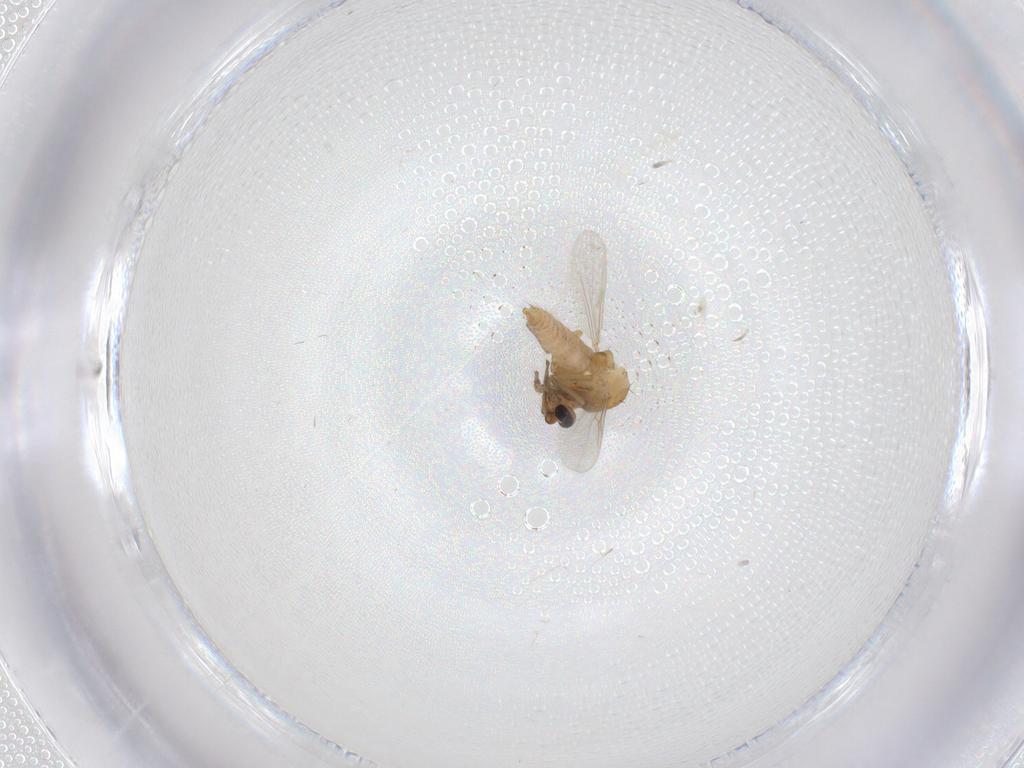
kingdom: Animalia
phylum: Arthropoda
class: Insecta
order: Diptera
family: Ceratopogonidae
